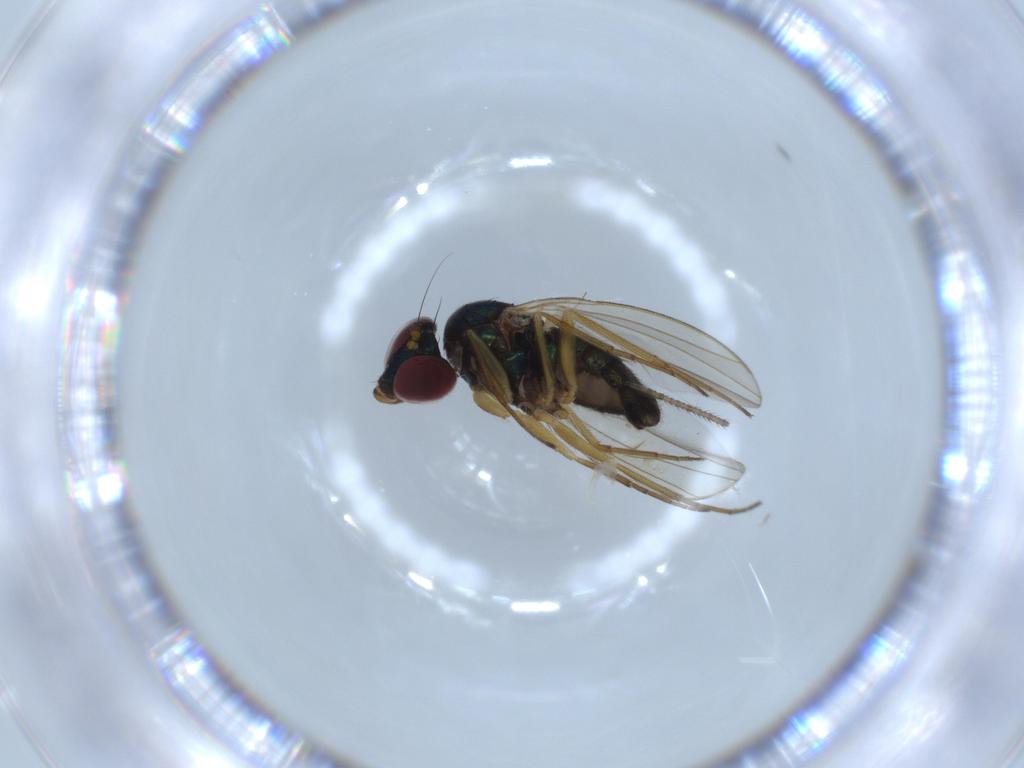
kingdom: Animalia
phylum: Arthropoda
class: Insecta
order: Diptera
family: Dolichopodidae
